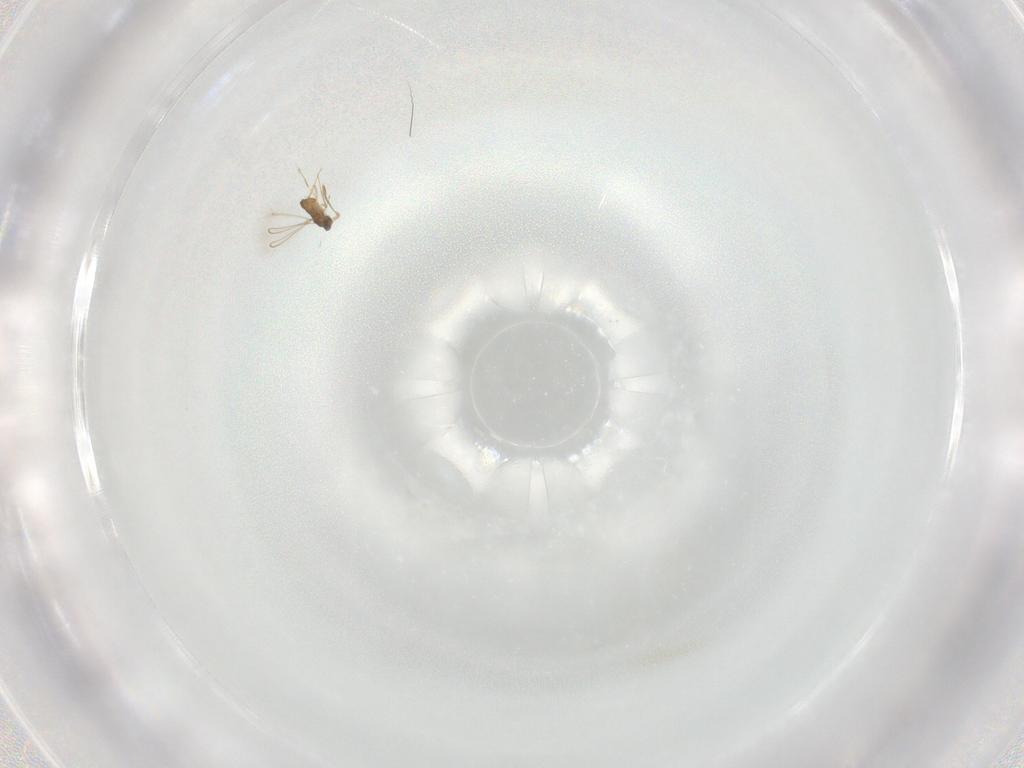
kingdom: Animalia
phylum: Arthropoda
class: Insecta
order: Hymenoptera
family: Mymaridae
